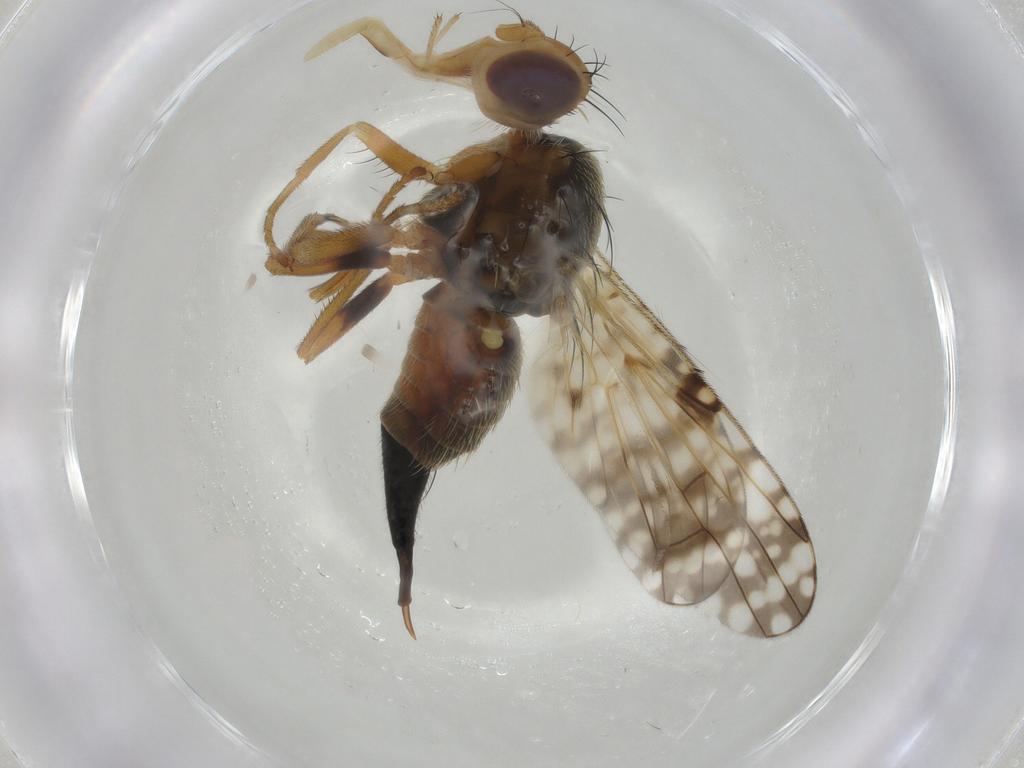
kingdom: Animalia
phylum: Arthropoda
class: Insecta
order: Diptera
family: Tephritidae
